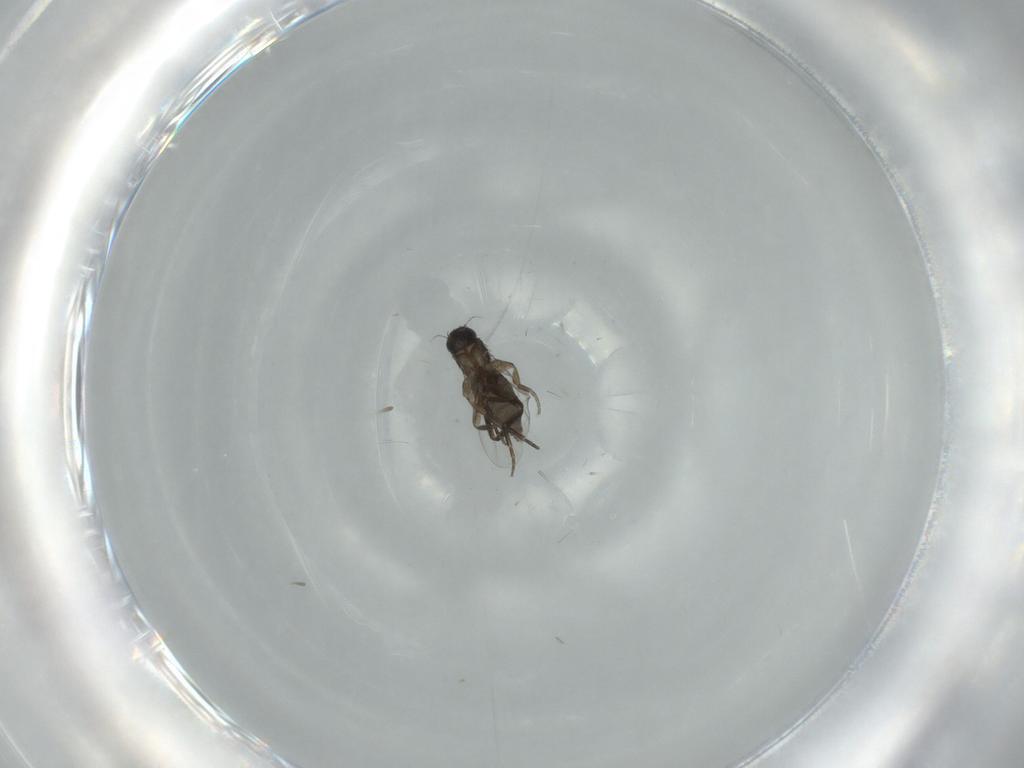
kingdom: Animalia
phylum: Arthropoda
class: Insecta
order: Diptera
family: Phoridae
